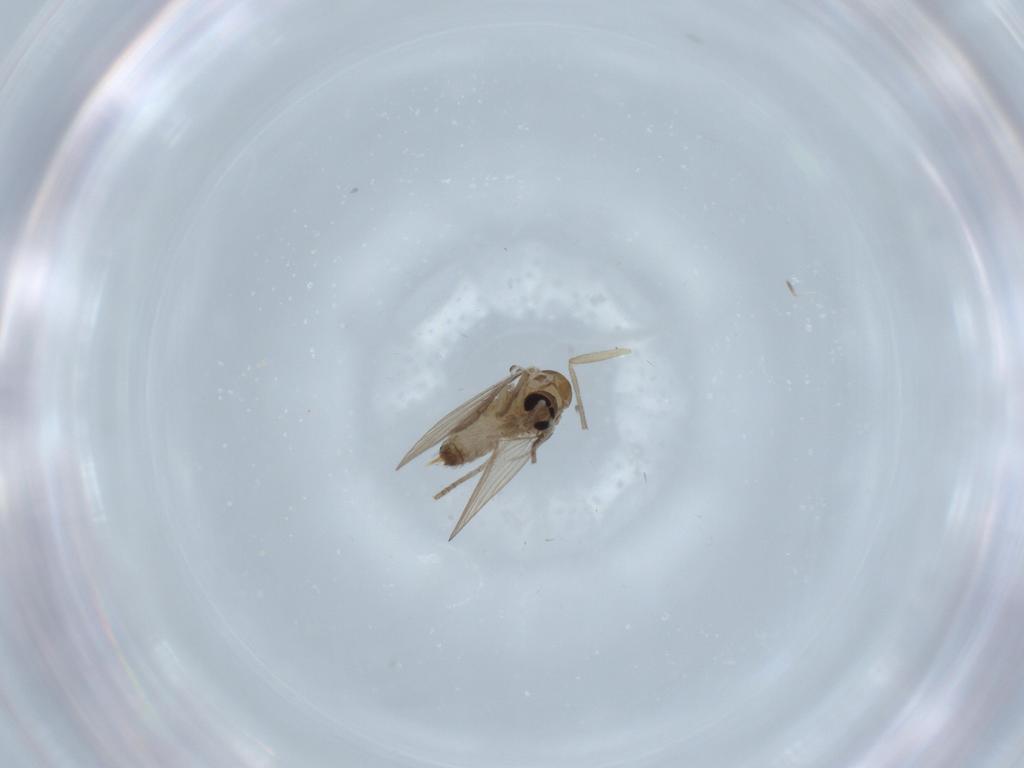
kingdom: Animalia
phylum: Arthropoda
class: Insecta
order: Diptera
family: Psychodidae
